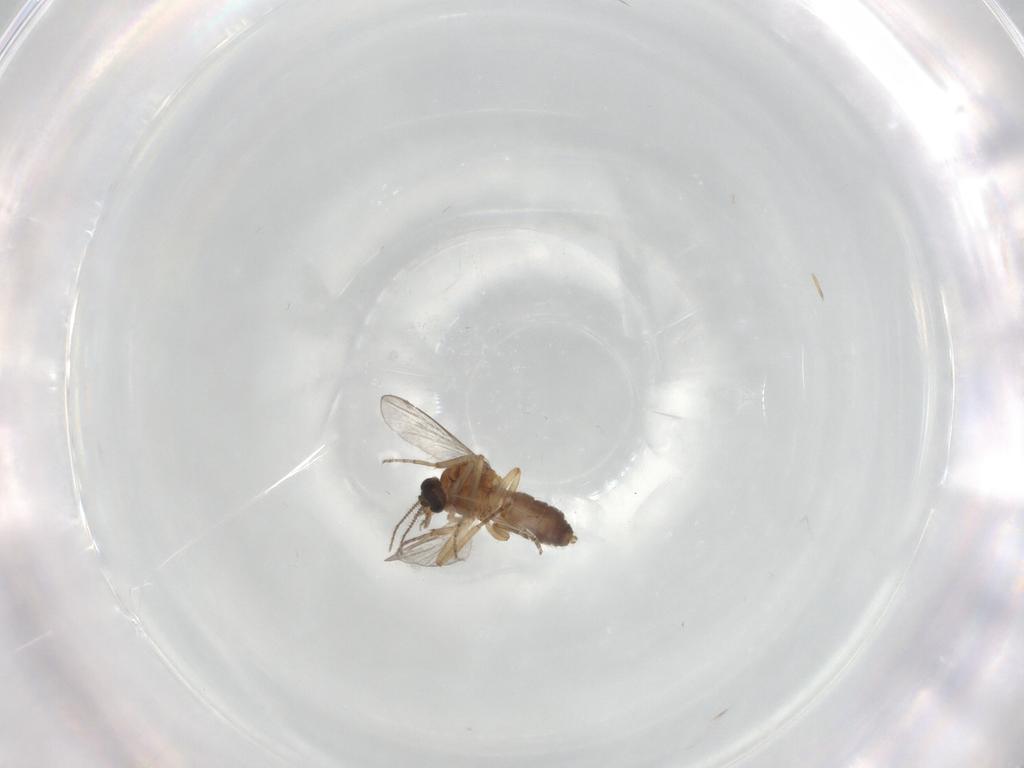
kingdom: Animalia
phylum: Arthropoda
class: Insecta
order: Diptera
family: Ceratopogonidae
